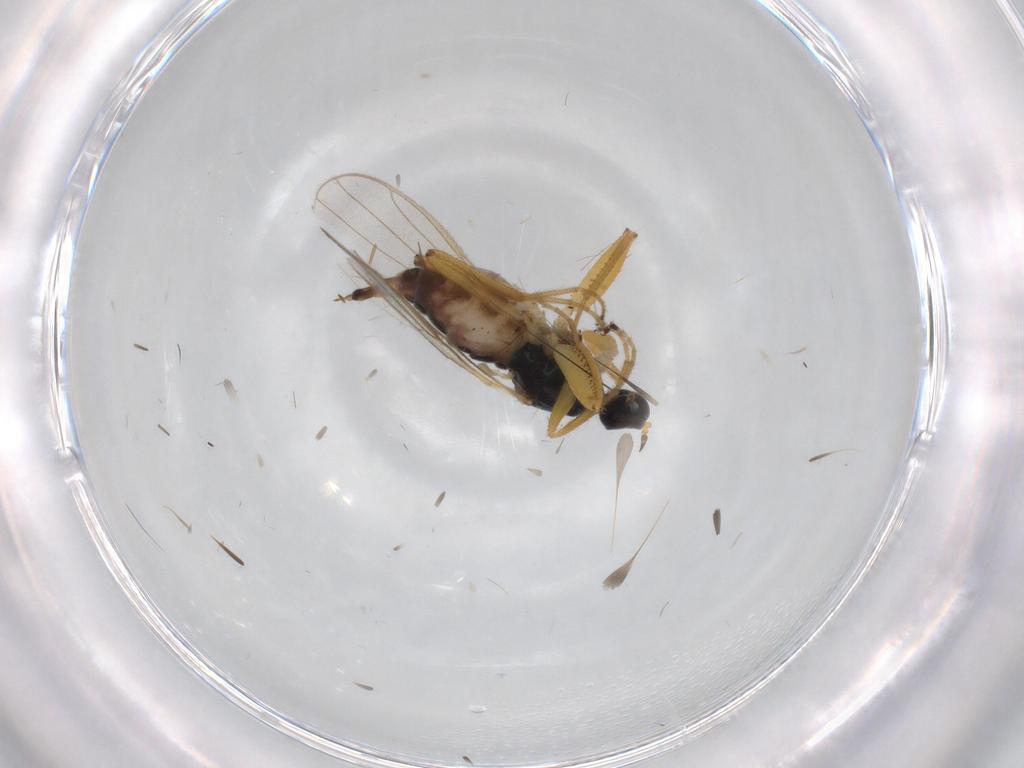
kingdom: Animalia
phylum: Arthropoda
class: Insecta
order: Diptera
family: Hybotidae
